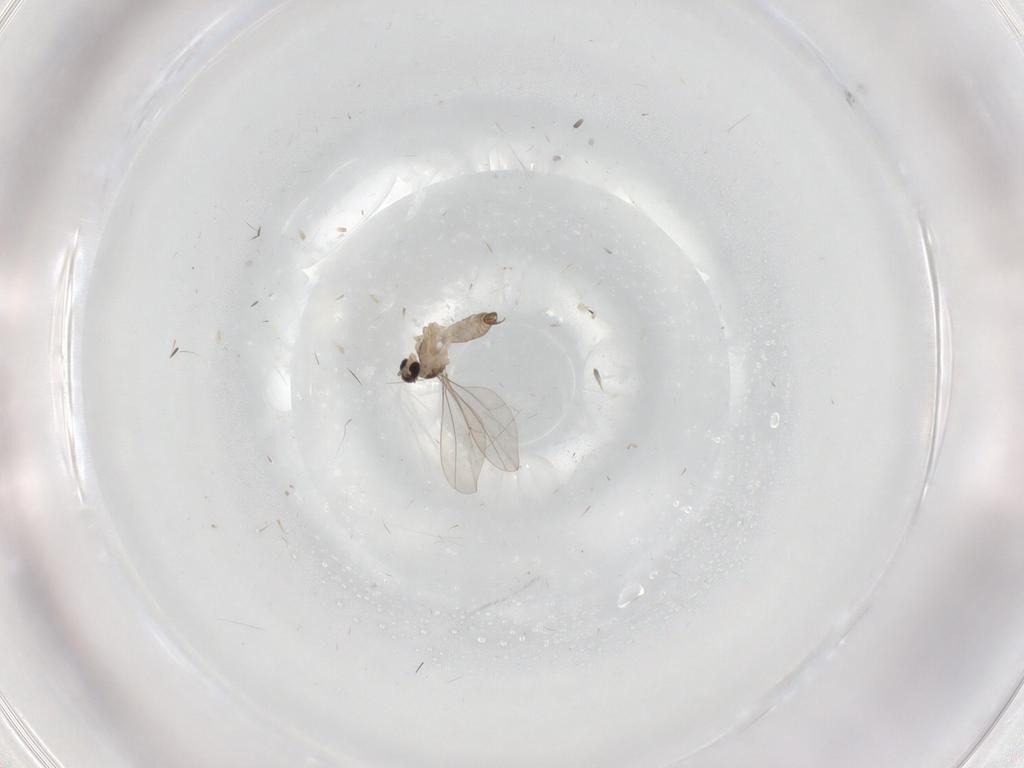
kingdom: Animalia
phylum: Arthropoda
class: Insecta
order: Diptera
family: Cecidomyiidae
